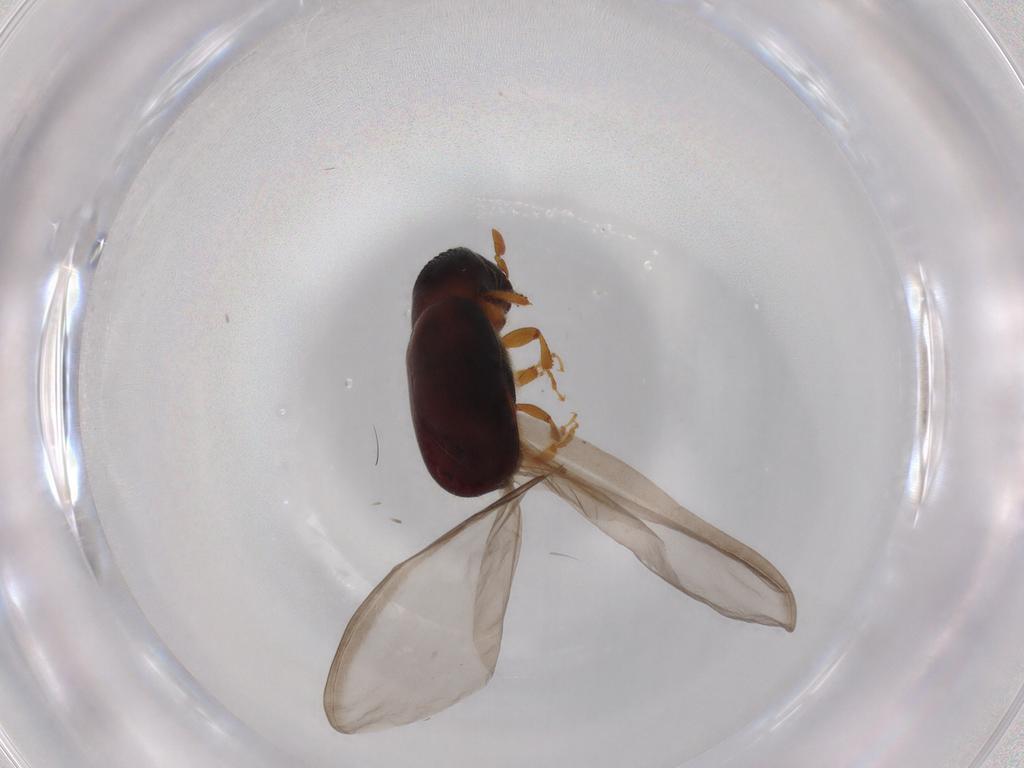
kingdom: Animalia
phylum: Arthropoda
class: Insecta
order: Coleoptera
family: Curculionidae
